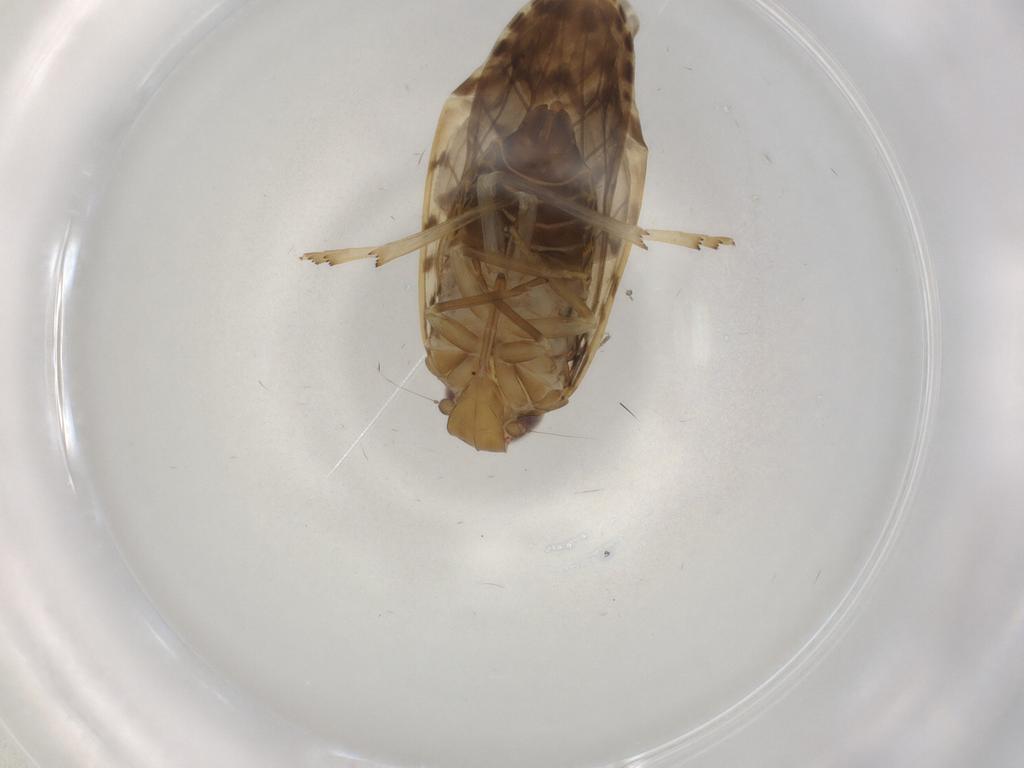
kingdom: Animalia
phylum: Arthropoda
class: Insecta
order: Hemiptera
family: Achilidae
